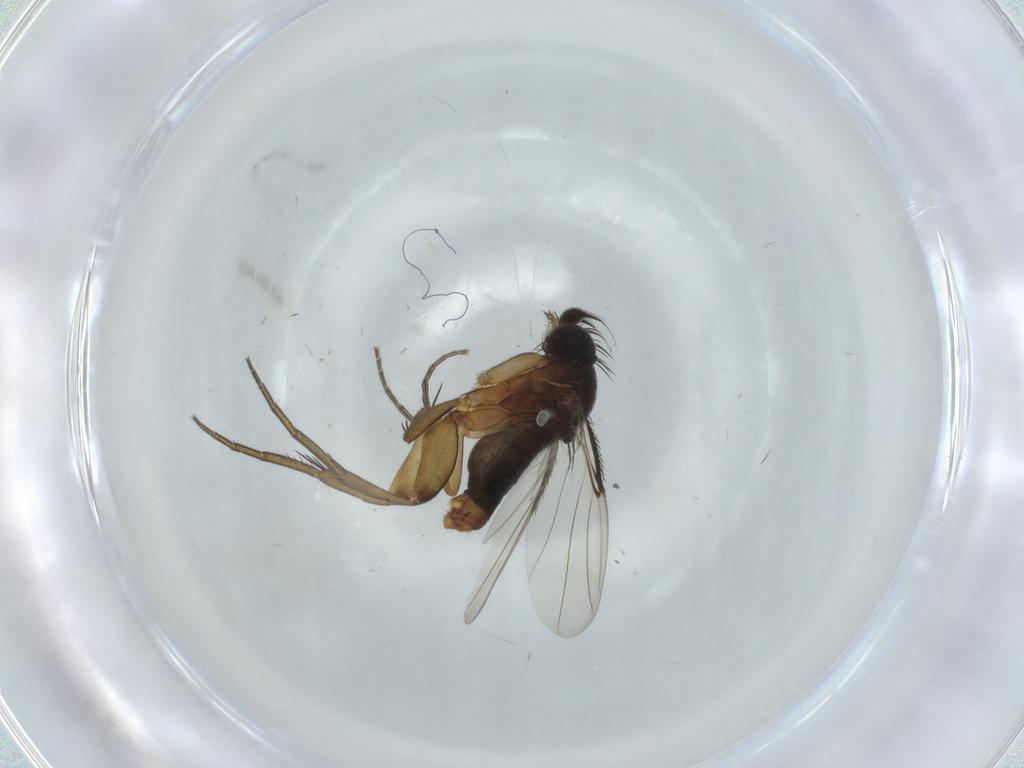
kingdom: Animalia
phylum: Arthropoda
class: Insecta
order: Diptera
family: Phoridae
